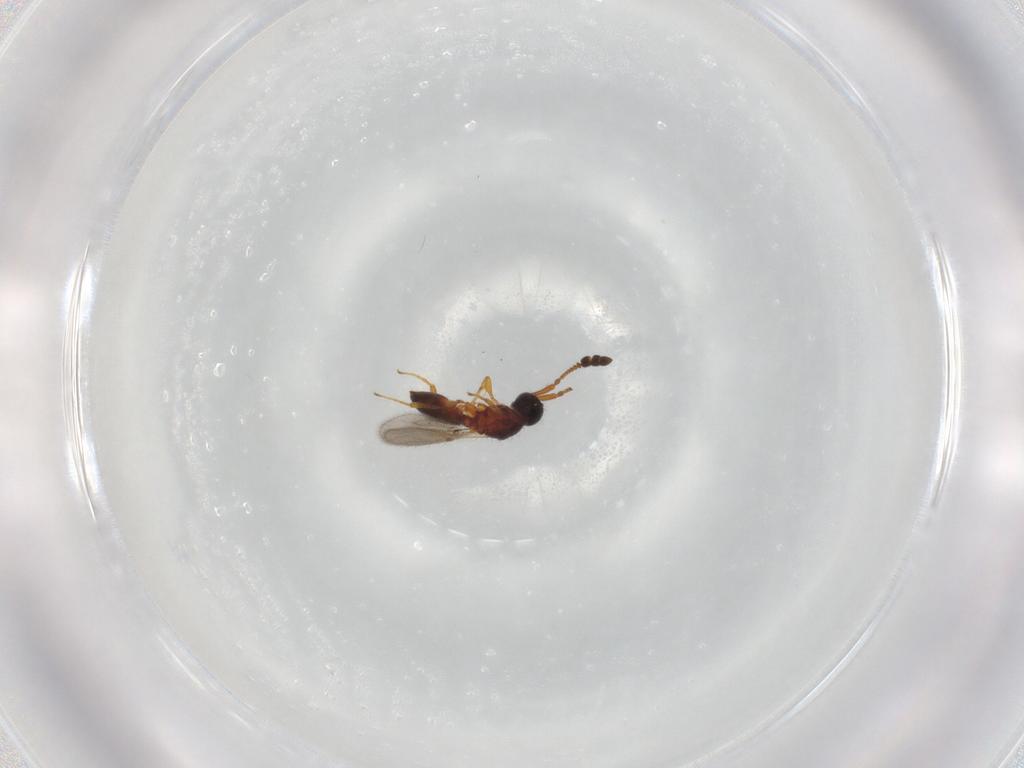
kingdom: Animalia
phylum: Arthropoda
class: Insecta
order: Hymenoptera
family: Diapriidae
